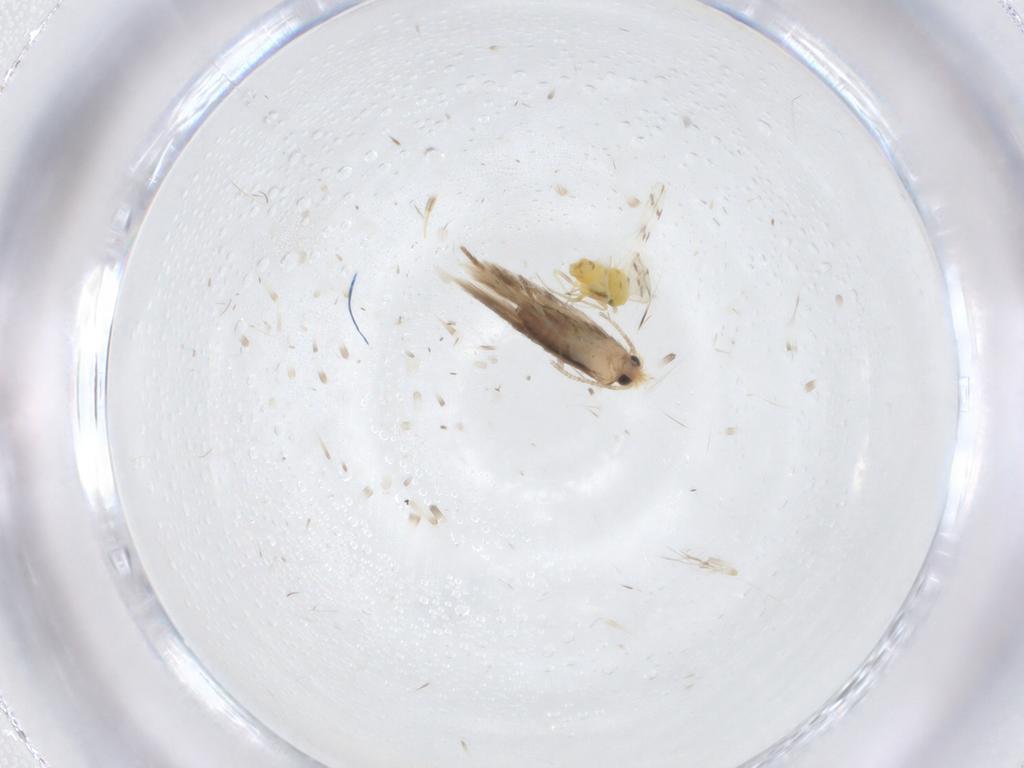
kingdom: Animalia
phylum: Arthropoda
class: Insecta
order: Lepidoptera
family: Nepticulidae
